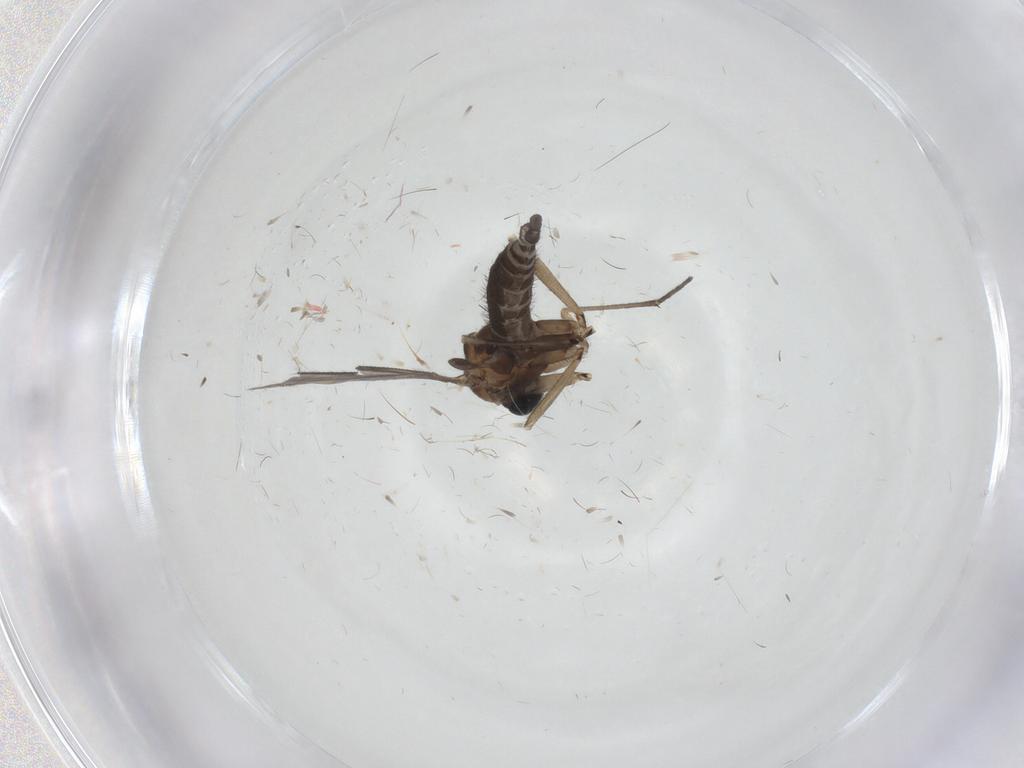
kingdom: Animalia
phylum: Arthropoda
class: Insecta
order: Diptera
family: Sciaridae
